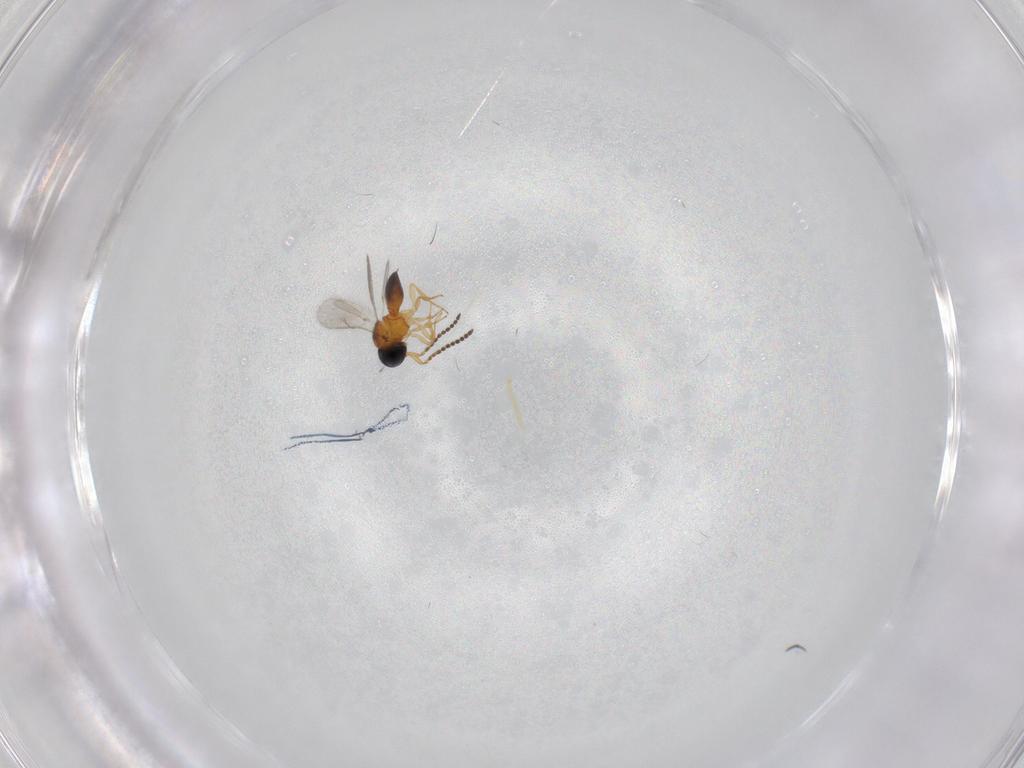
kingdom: Animalia
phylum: Arthropoda
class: Insecta
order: Hymenoptera
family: Scelionidae
